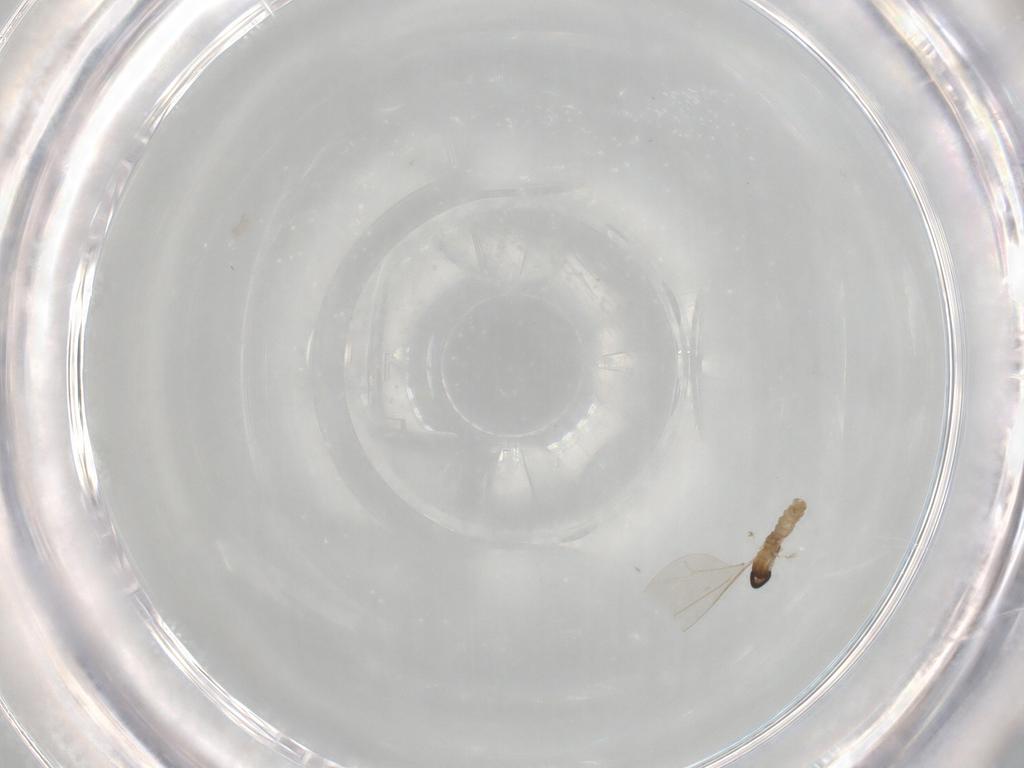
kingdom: Animalia
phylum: Arthropoda
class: Insecta
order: Diptera
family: Cecidomyiidae
